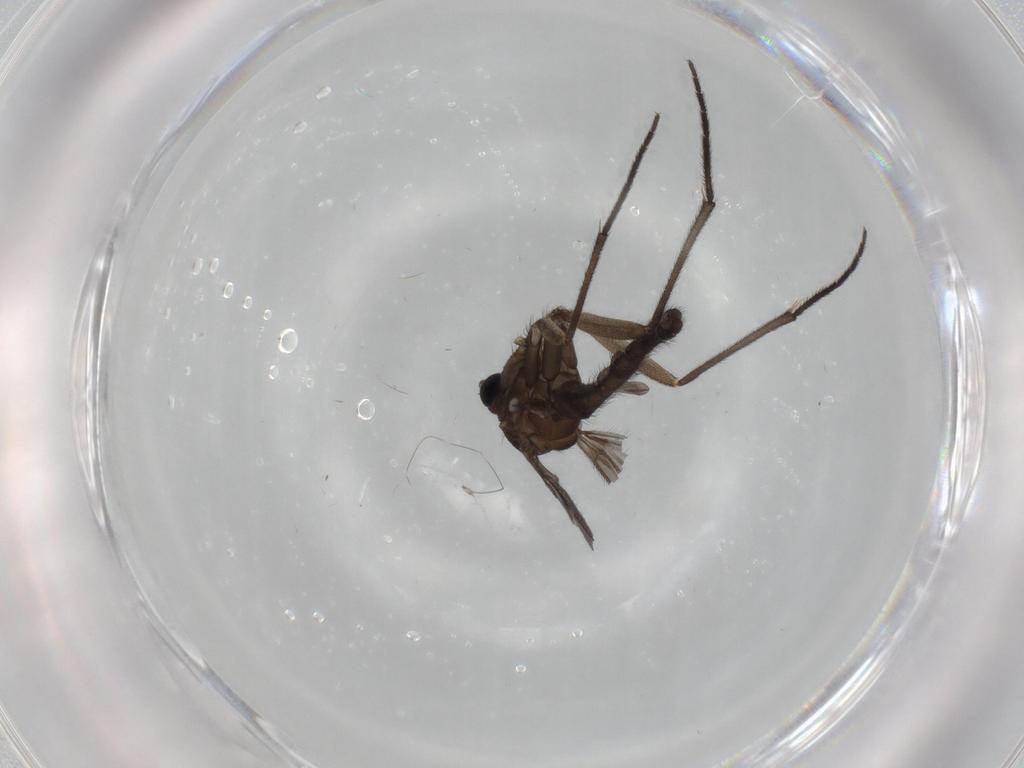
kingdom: Animalia
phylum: Arthropoda
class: Insecta
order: Diptera
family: Sciaridae
